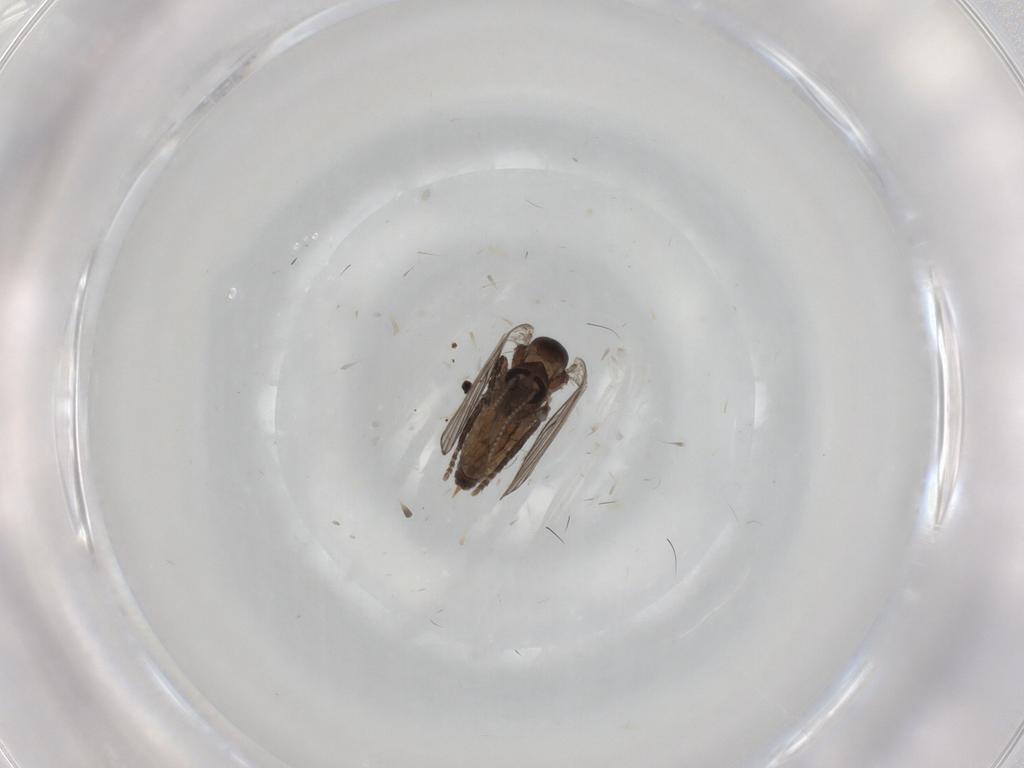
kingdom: Animalia
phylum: Arthropoda
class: Insecta
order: Diptera
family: Psychodidae
